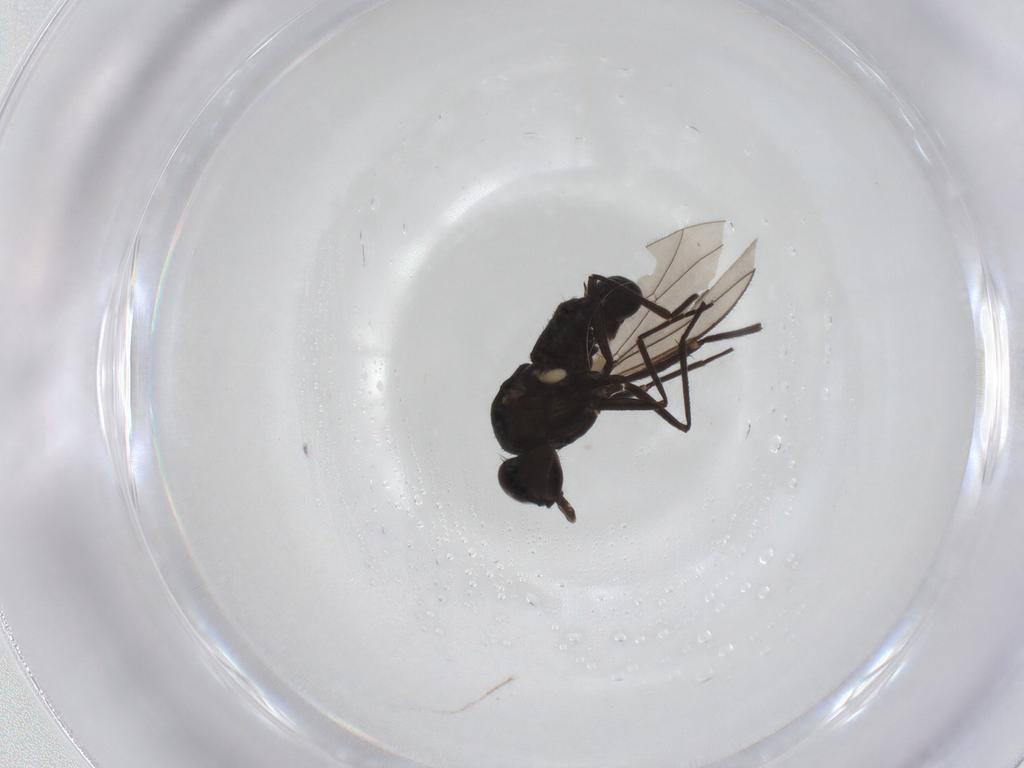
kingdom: Animalia
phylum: Arthropoda
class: Insecta
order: Diptera
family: Dolichopodidae
